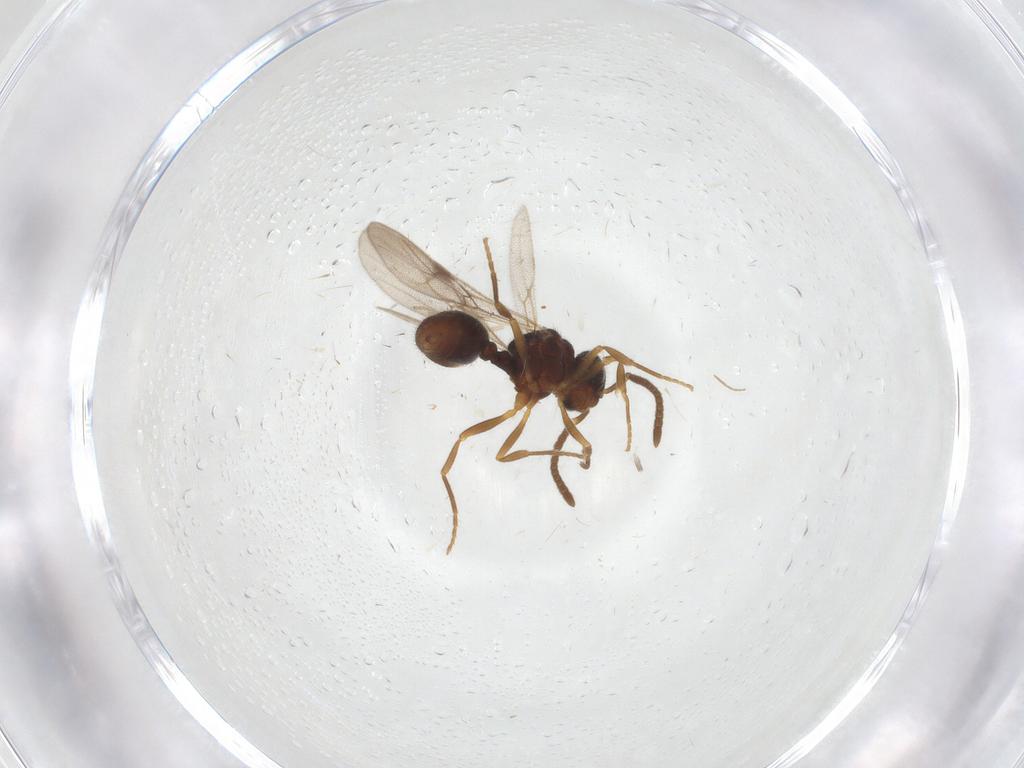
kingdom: Animalia
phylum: Arthropoda
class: Insecta
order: Hymenoptera
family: Formicidae
